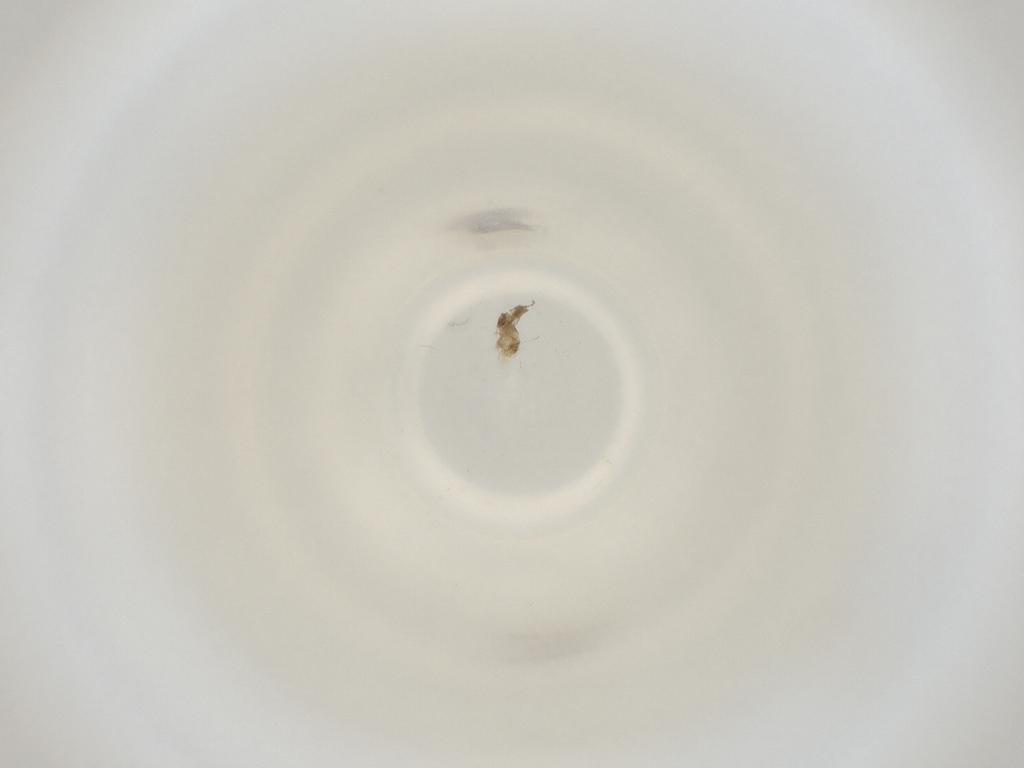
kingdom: Animalia
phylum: Arthropoda
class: Insecta
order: Diptera
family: Cecidomyiidae
